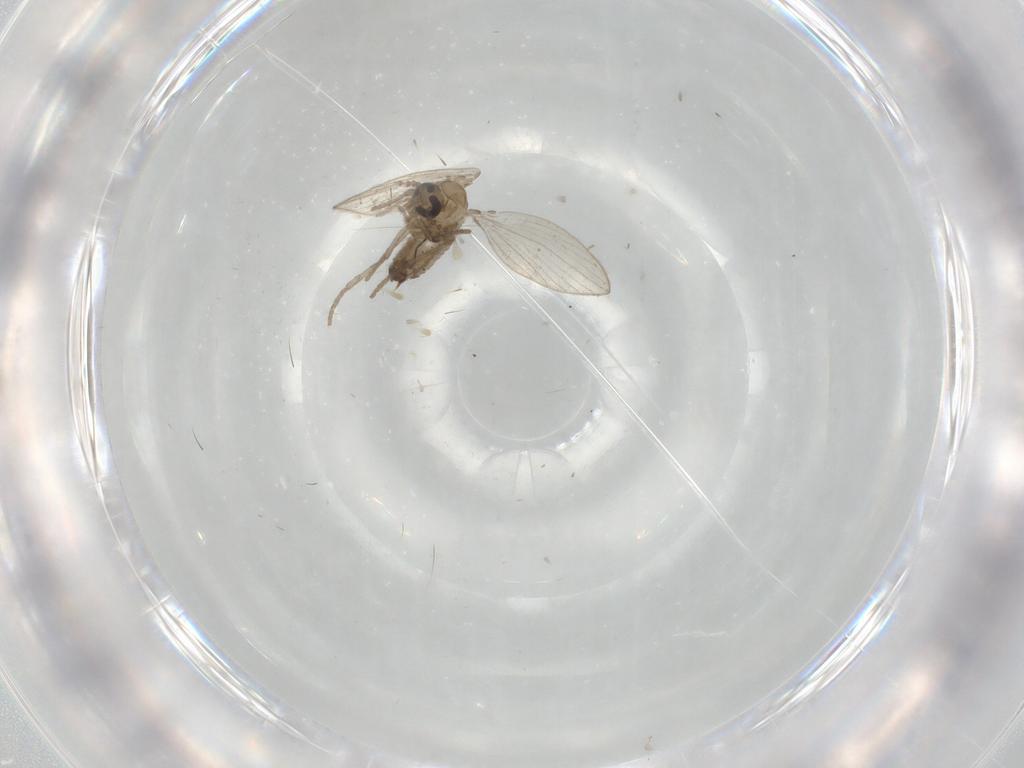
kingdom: Animalia
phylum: Arthropoda
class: Insecta
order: Diptera
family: Psychodidae
